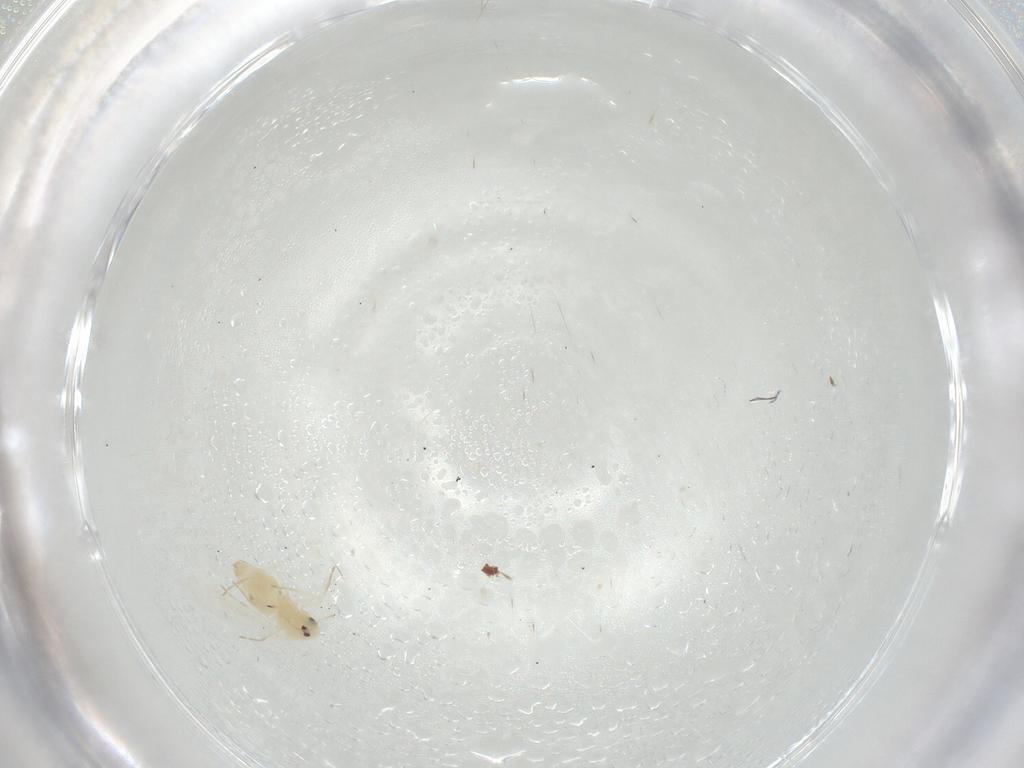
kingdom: Animalia
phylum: Arthropoda
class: Insecta
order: Hemiptera
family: Aleyrodidae
